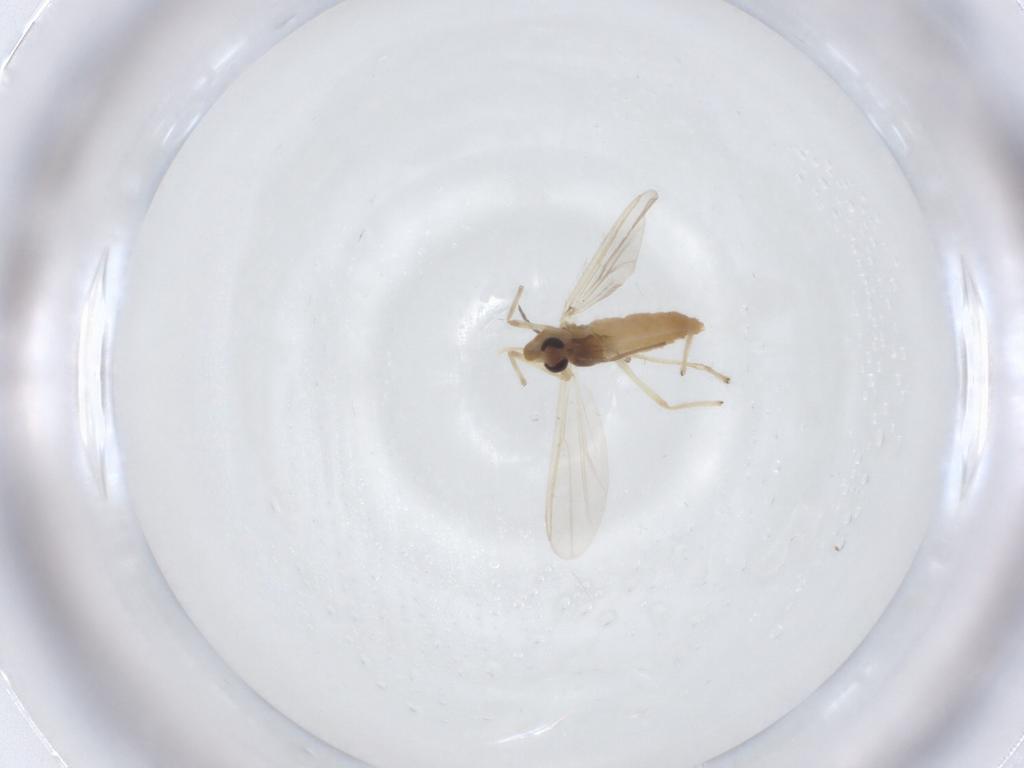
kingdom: Animalia
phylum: Arthropoda
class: Insecta
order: Diptera
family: Chironomidae
